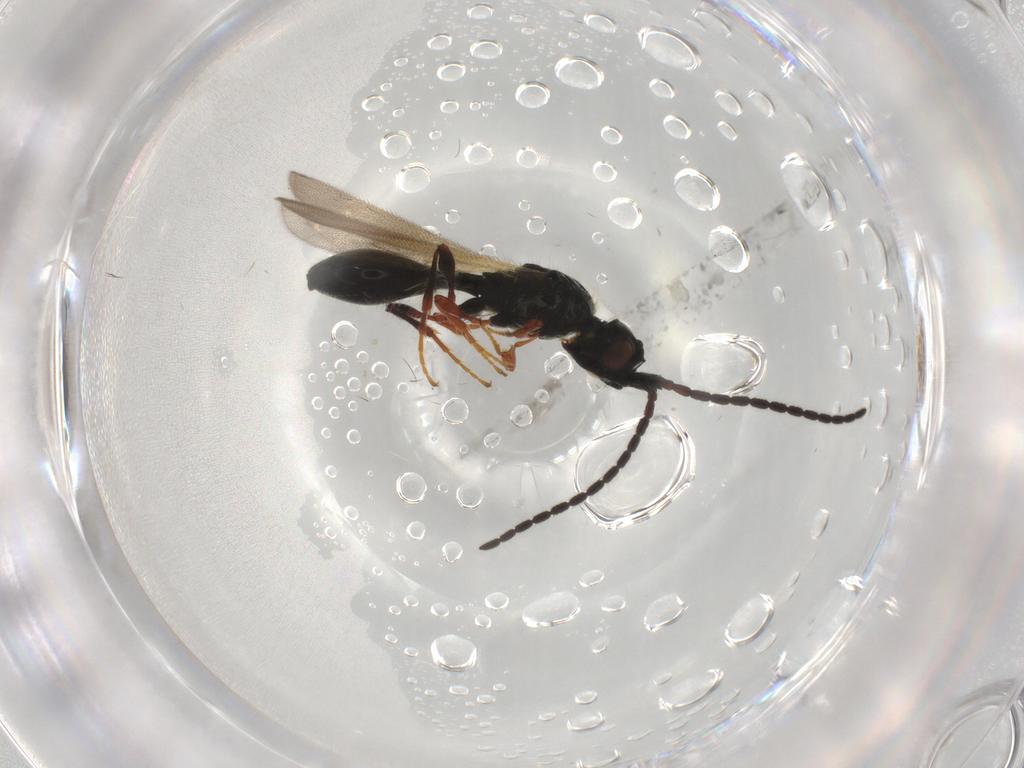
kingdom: Animalia
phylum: Arthropoda
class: Insecta
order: Hymenoptera
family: Diapriidae
